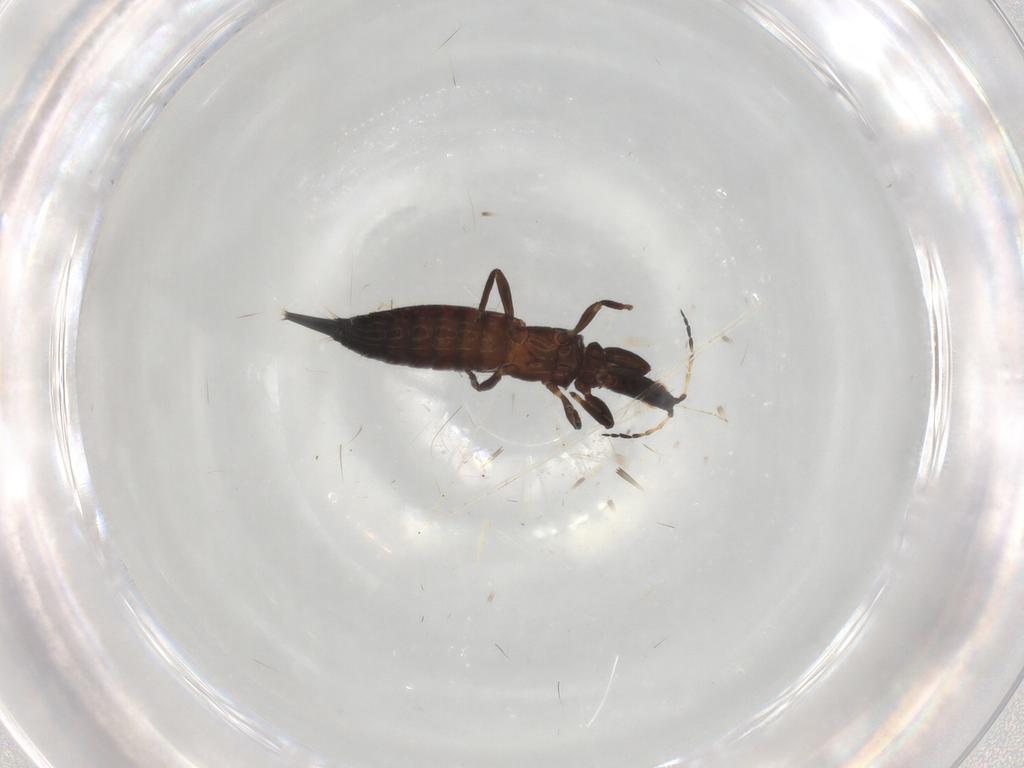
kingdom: Animalia
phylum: Arthropoda
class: Insecta
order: Thysanoptera
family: Phlaeothripidae
